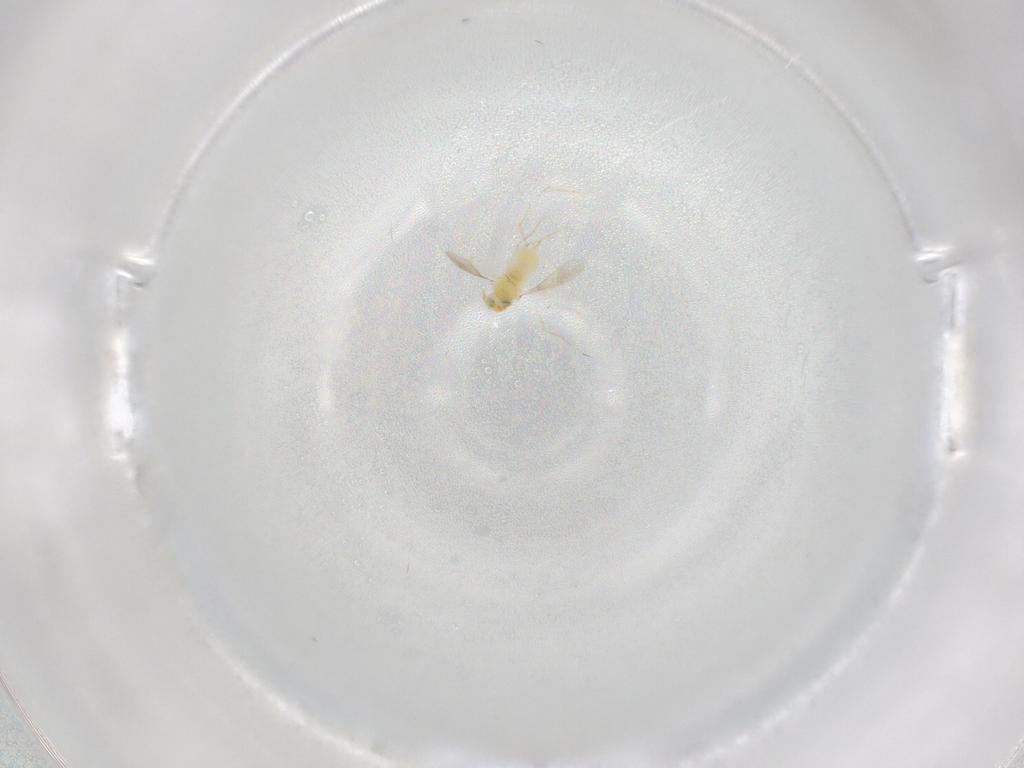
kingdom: Animalia
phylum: Arthropoda
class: Insecta
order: Hymenoptera
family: Aphelinidae
